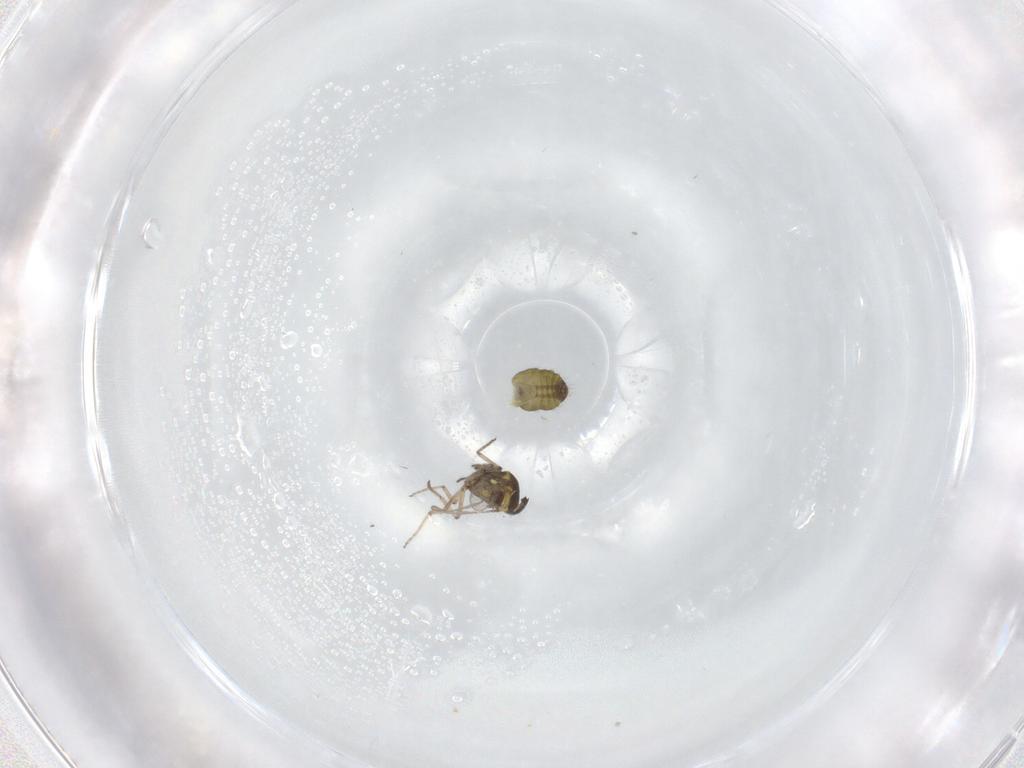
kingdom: Animalia
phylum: Arthropoda
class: Insecta
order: Diptera
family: Ceratopogonidae
